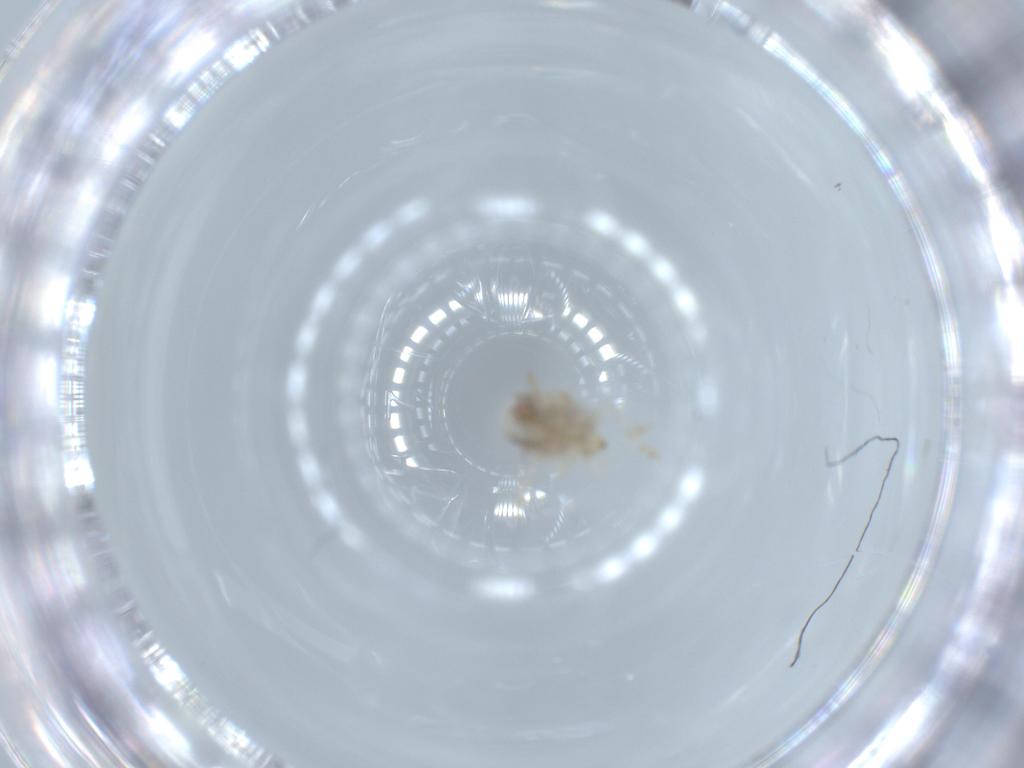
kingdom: Animalia
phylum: Arthropoda
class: Insecta
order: Hemiptera
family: Acanaloniidae
